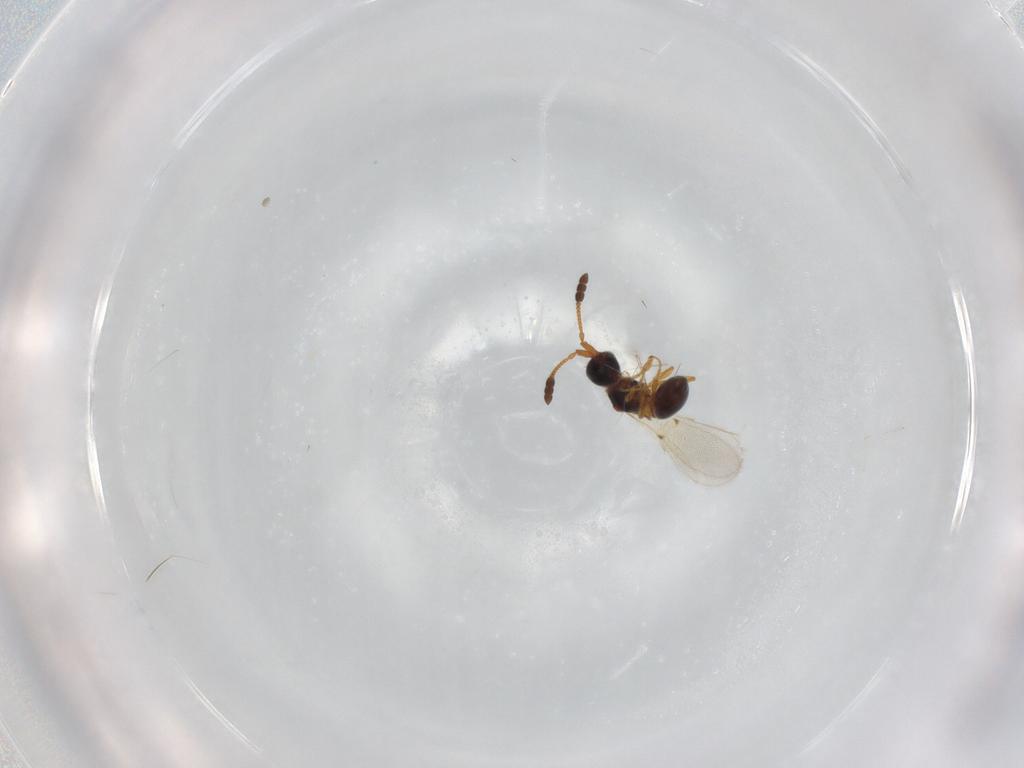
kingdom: Animalia
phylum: Arthropoda
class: Insecta
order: Hymenoptera
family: Diapriidae
